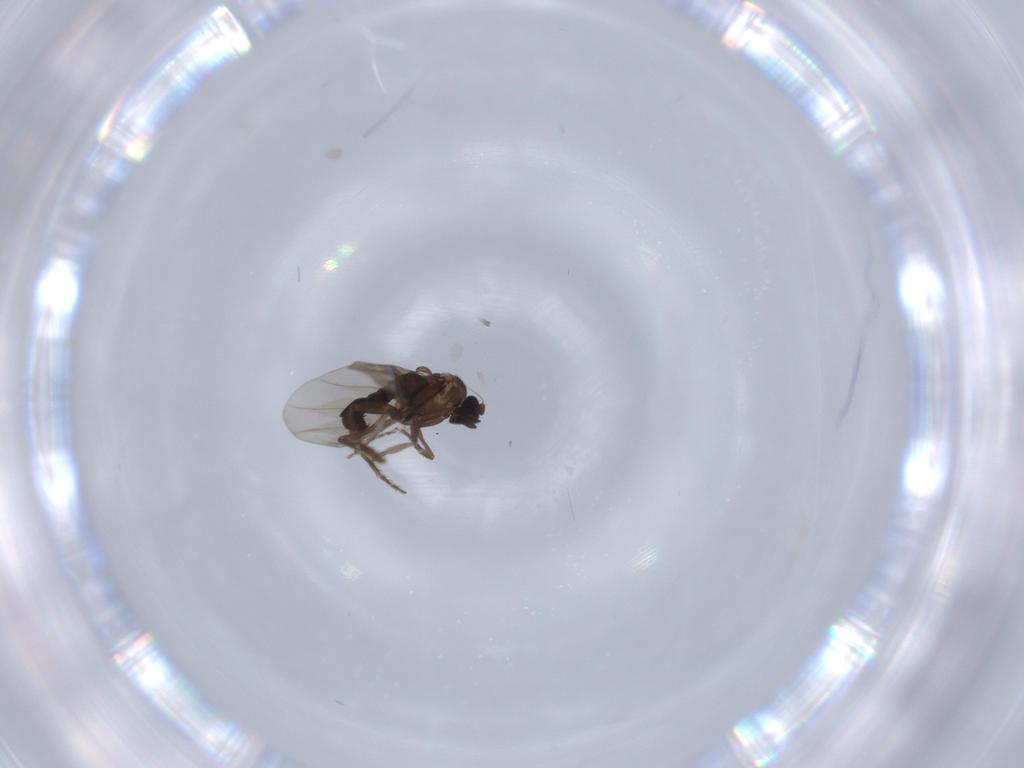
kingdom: Animalia
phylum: Arthropoda
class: Insecta
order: Diptera
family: Phoridae
